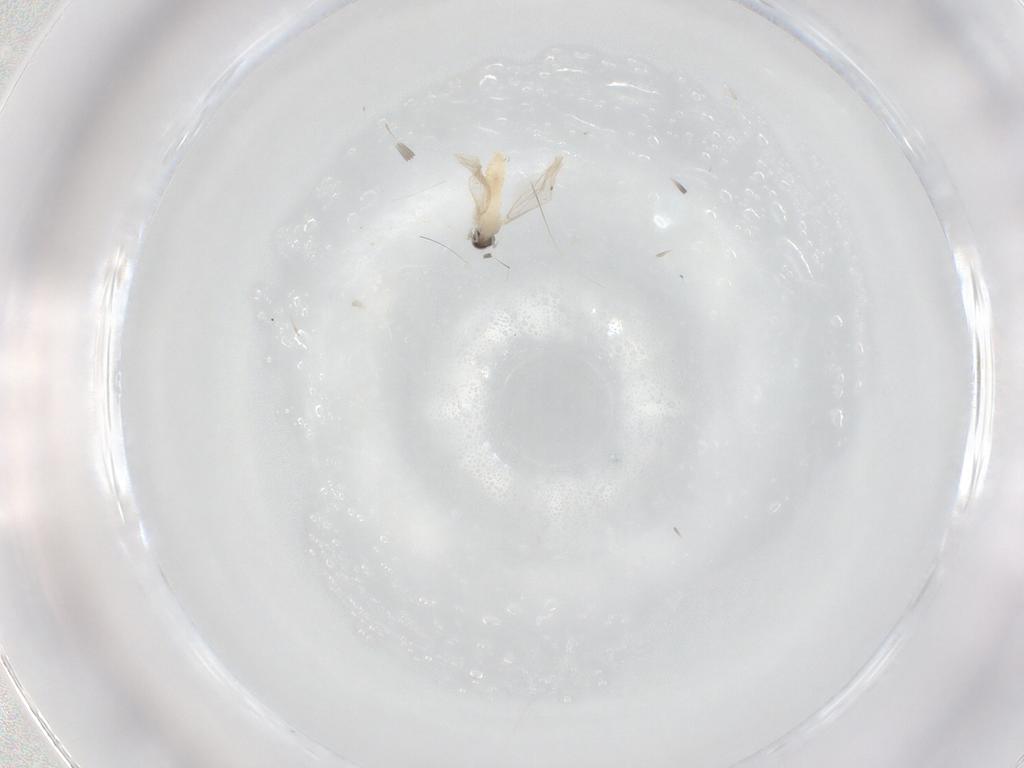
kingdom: Animalia
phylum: Arthropoda
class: Insecta
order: Diptera
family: Cecidomyiidae
